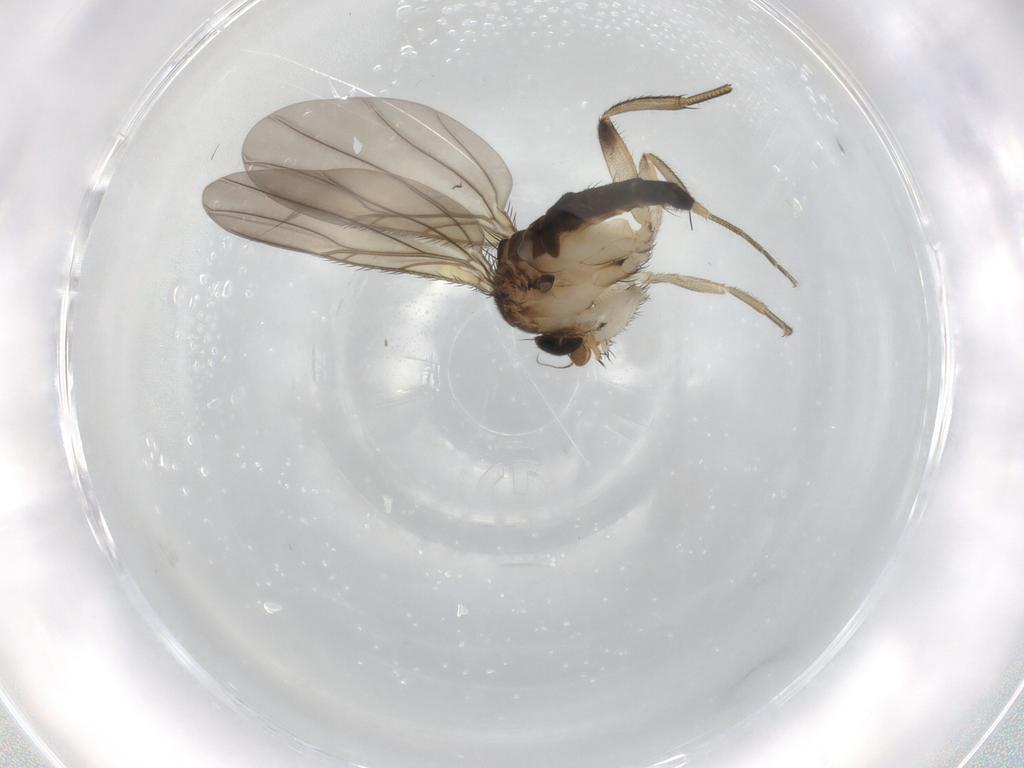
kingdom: Animalia
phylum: Arthropoda
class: Insecta
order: Diptera
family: Phoridae
